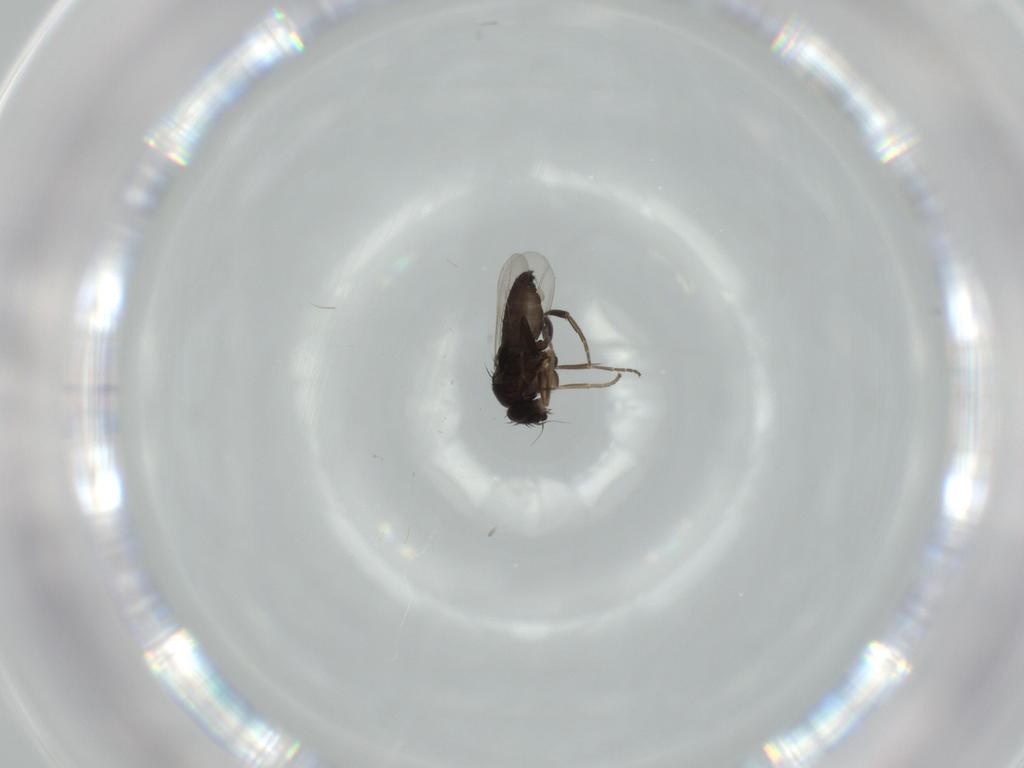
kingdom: Animalia
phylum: Arthropoda
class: Insecta
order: Diptera
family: Phoridae
